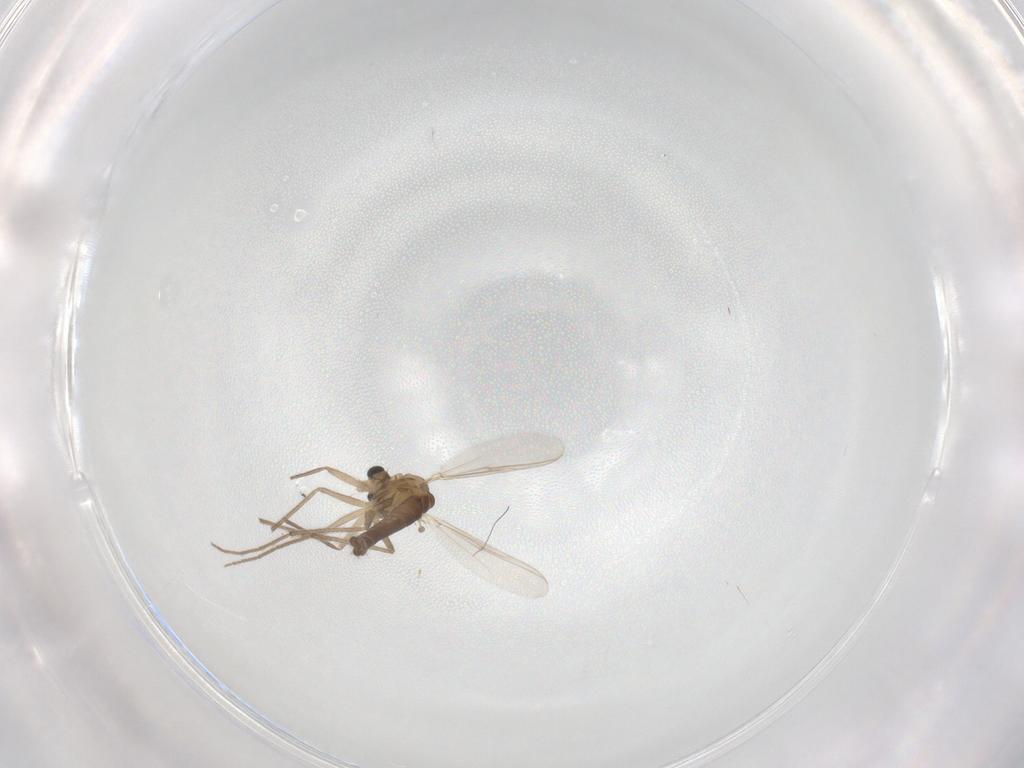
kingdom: Animalia
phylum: Arthropoda
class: Insecta
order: Diptera
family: Chironomidae
